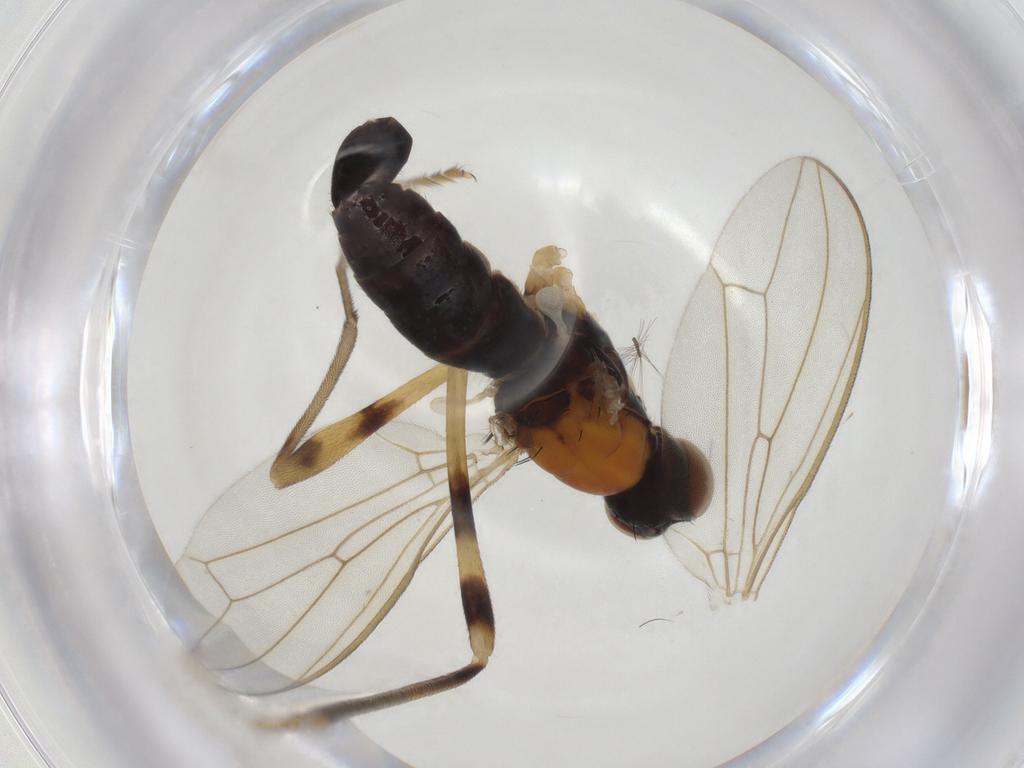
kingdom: Animalia
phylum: Arthropoda
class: Insecta
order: Diptera
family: Micropezidae
